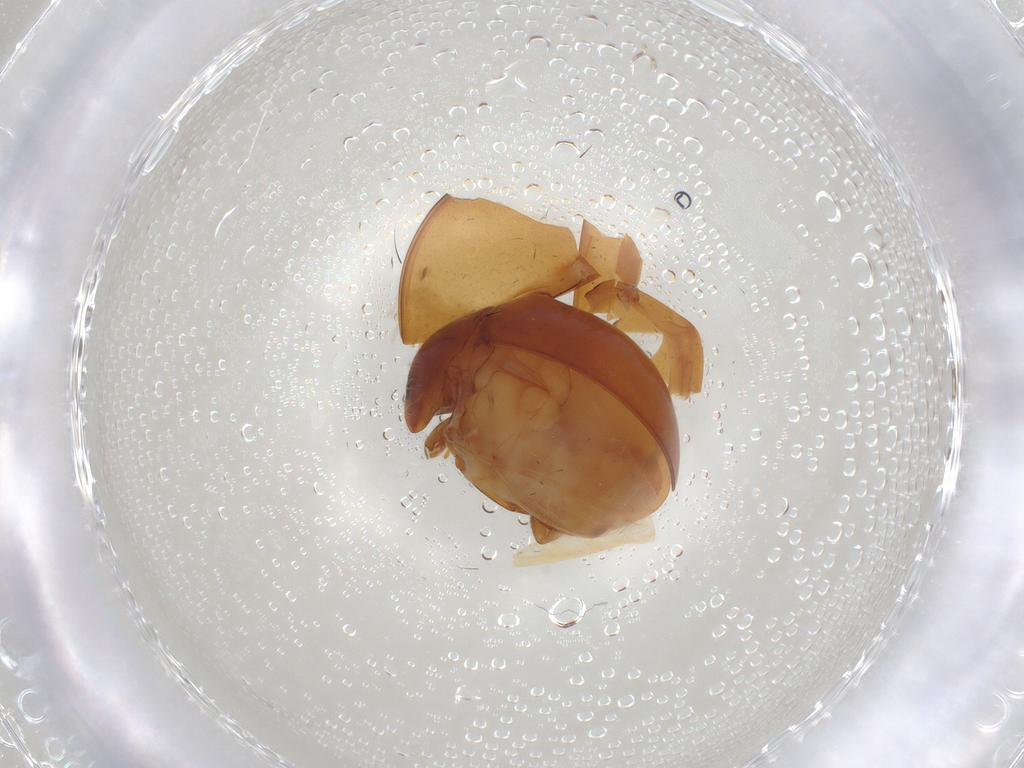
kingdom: Animalia
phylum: Arthropoda
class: Insecta
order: Coleoptera
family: Coccinellidae
